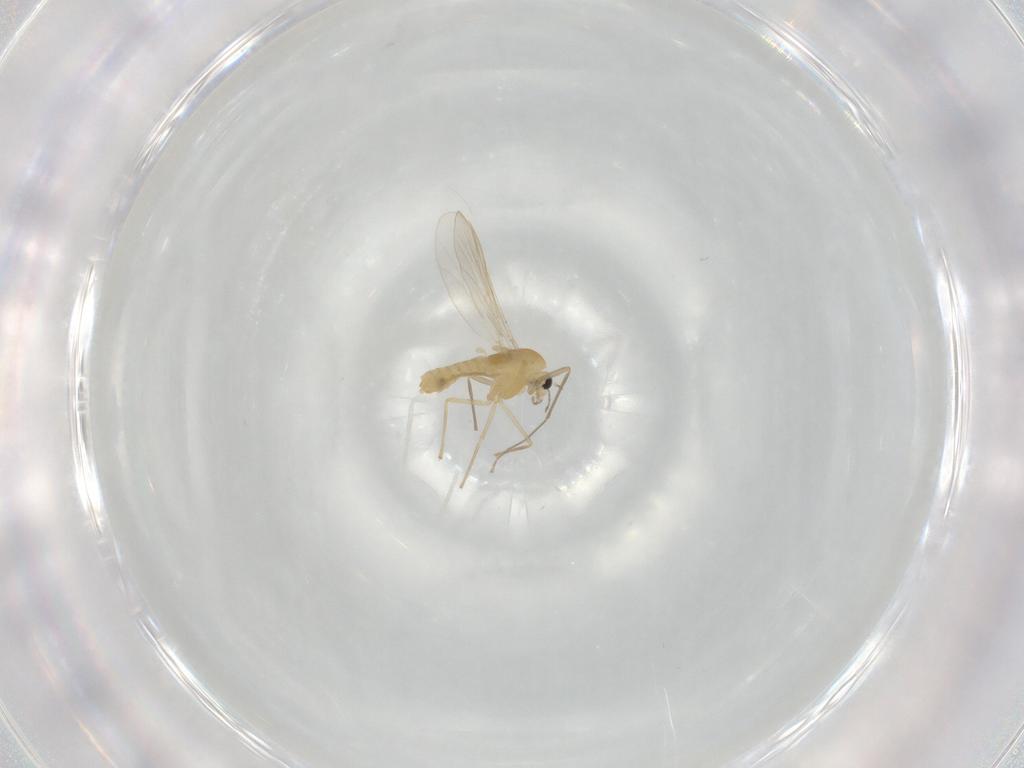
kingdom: Animalia
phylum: Arthropoda
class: Insecta
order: Diptera
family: Chironomidae
